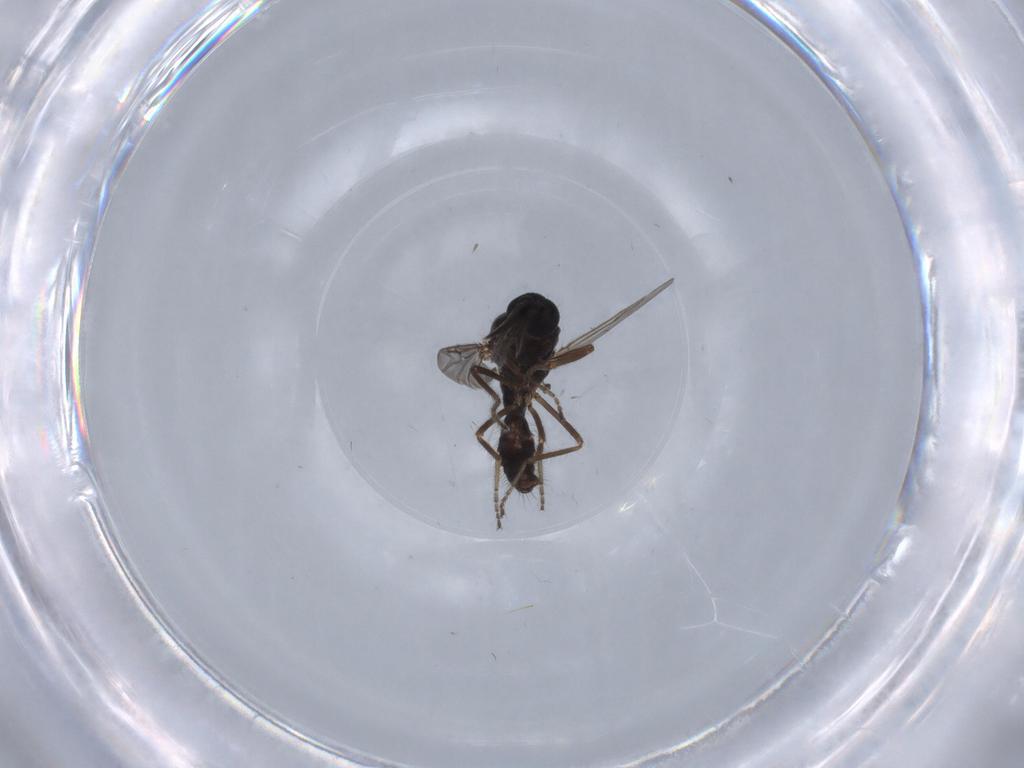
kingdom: Animalia
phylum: Arthropoda
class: Insecta
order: Diptera
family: Ceratopogonidae
